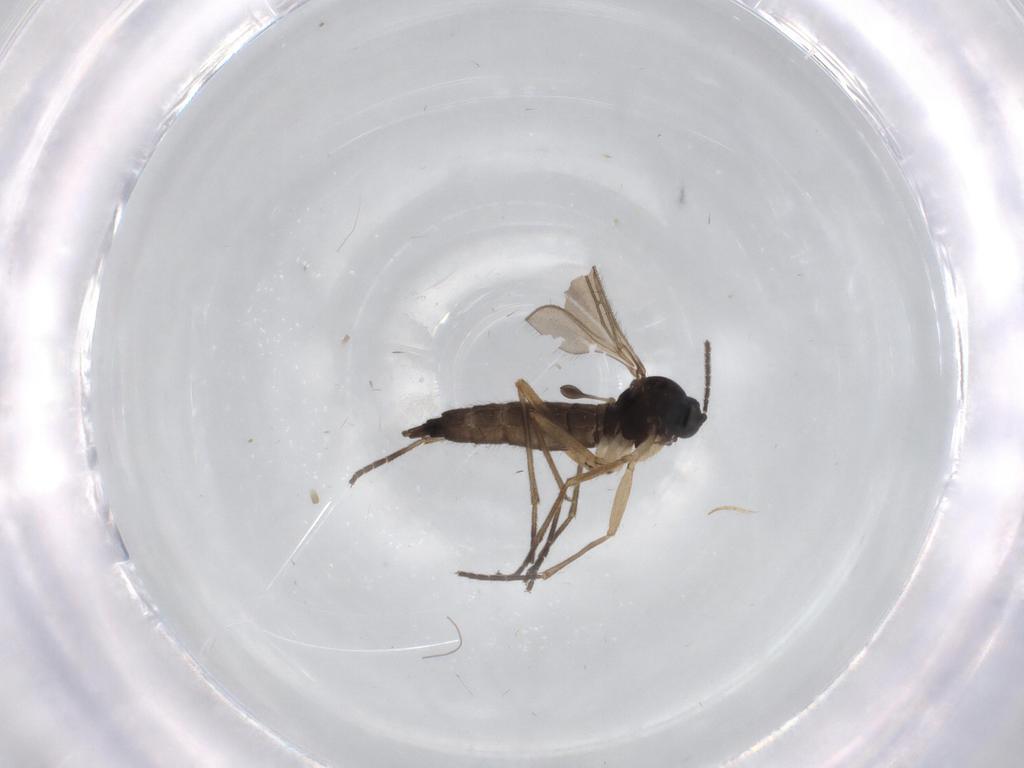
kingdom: Animalia
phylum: Arthropoda
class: Insecta
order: Diptera
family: Sciaridae
